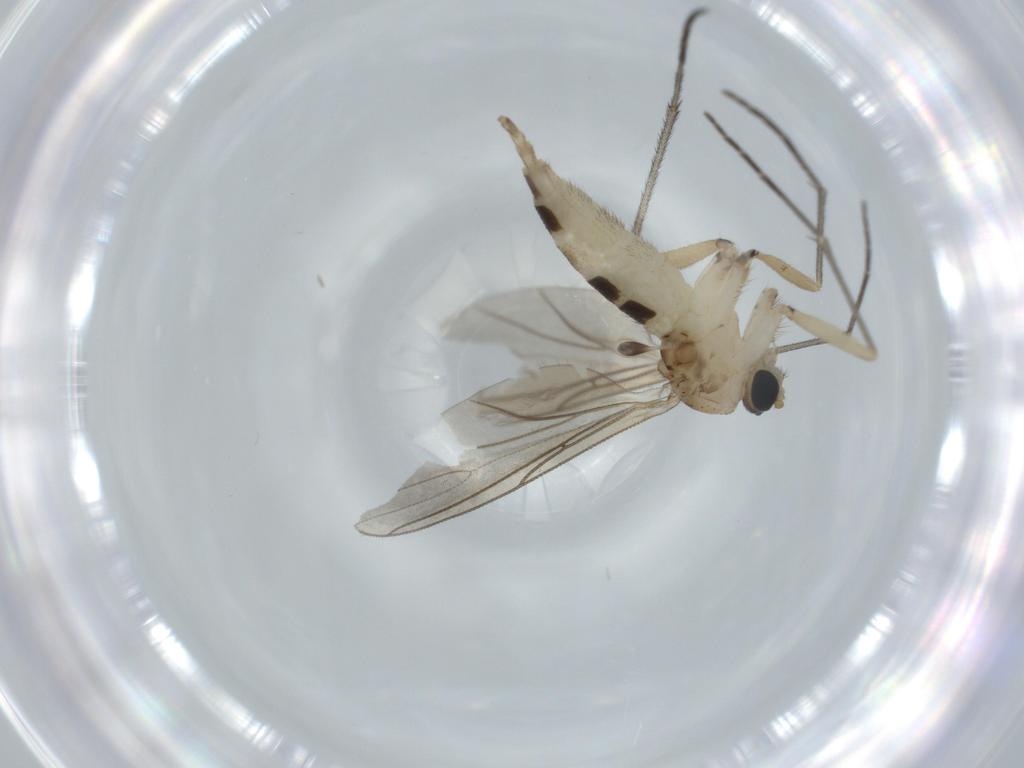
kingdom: Animalia
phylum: Arthropoda
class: Insecta
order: Diptera
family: Sciaridae
